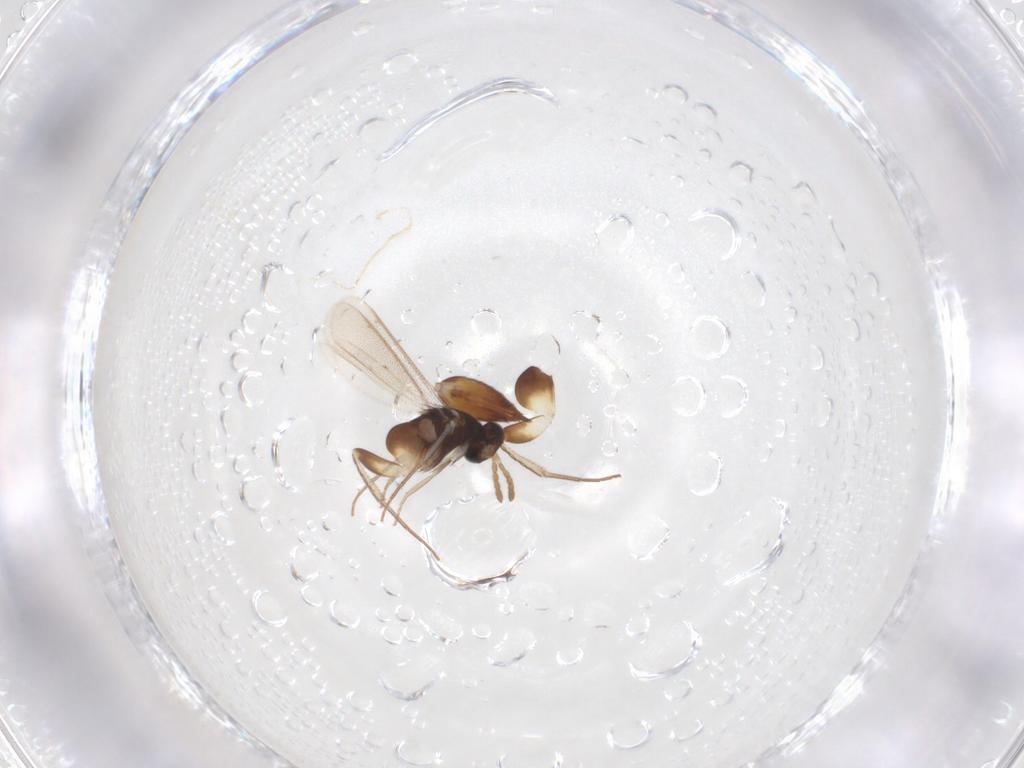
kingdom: Animalia
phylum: Arthropoda
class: Insecta
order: Hymenoptera
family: Eulophidae
